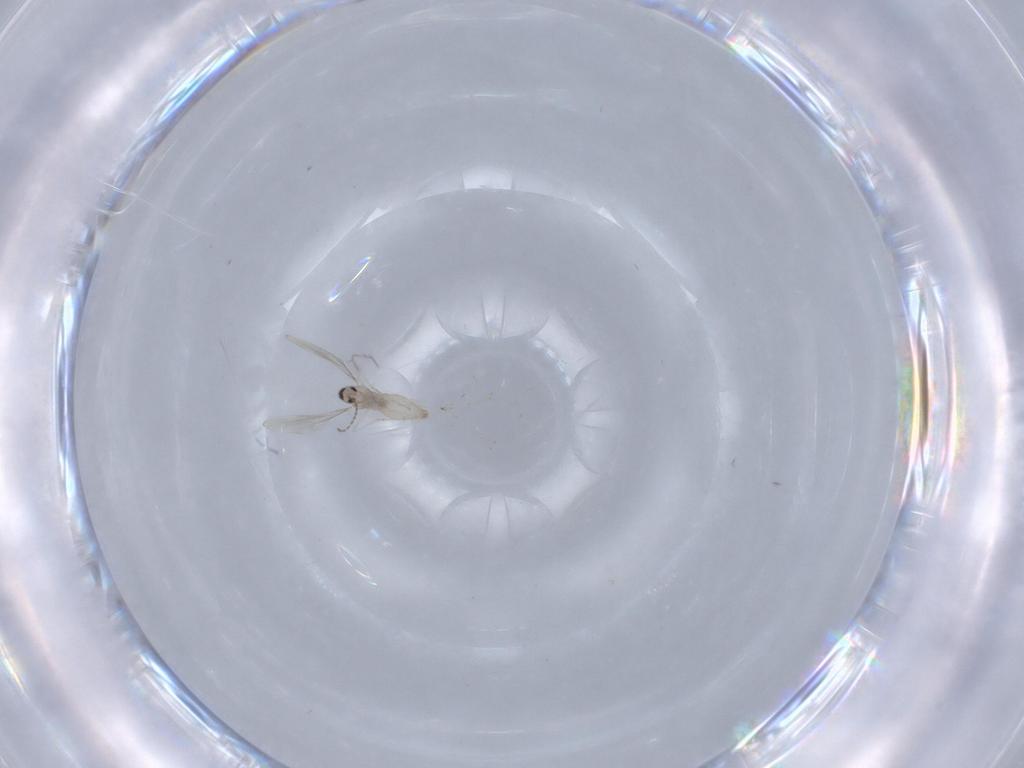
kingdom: Animalia
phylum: Arthropoda
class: Insecta
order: Diptera
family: Cecidomyiidae
